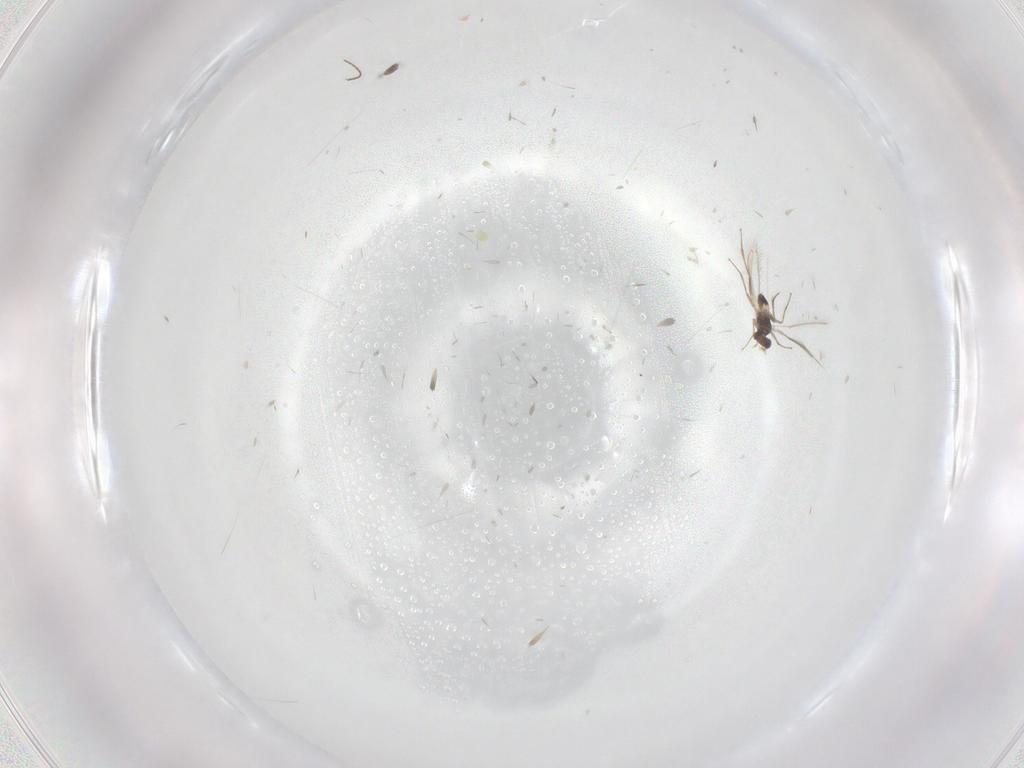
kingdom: Animalia
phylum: Arthropoda
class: Insecta
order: Hymenoptera
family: Mymaridae
